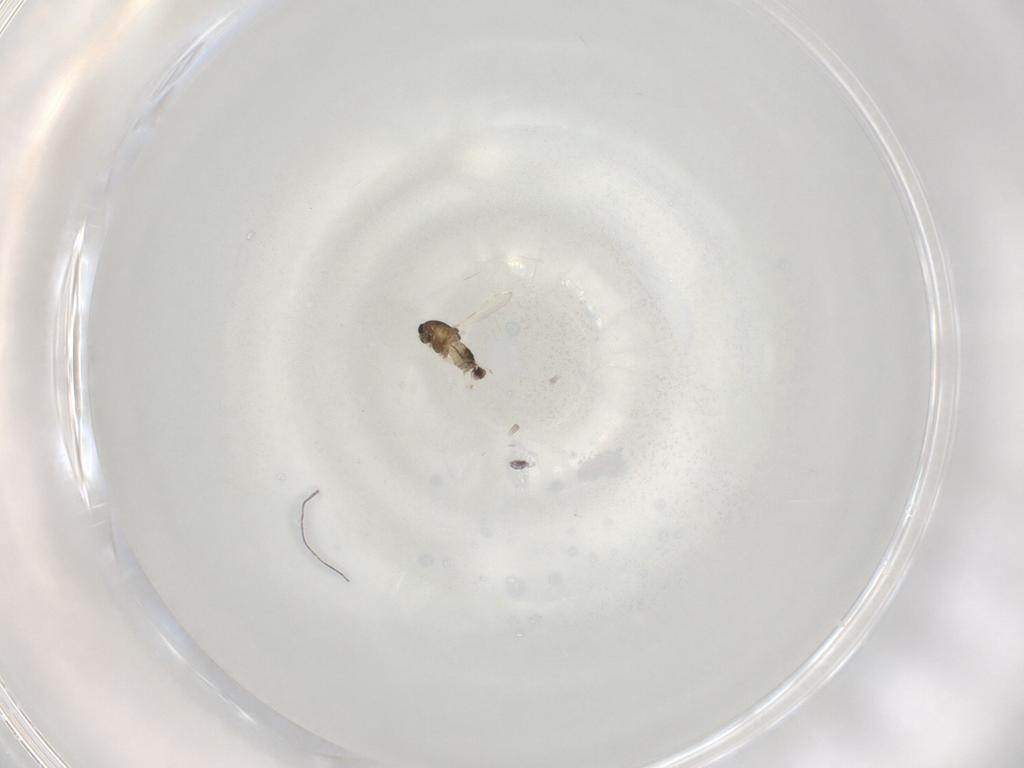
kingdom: Animalia
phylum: Arthropoda
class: Insecta
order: Diptera
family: Chironomidae
